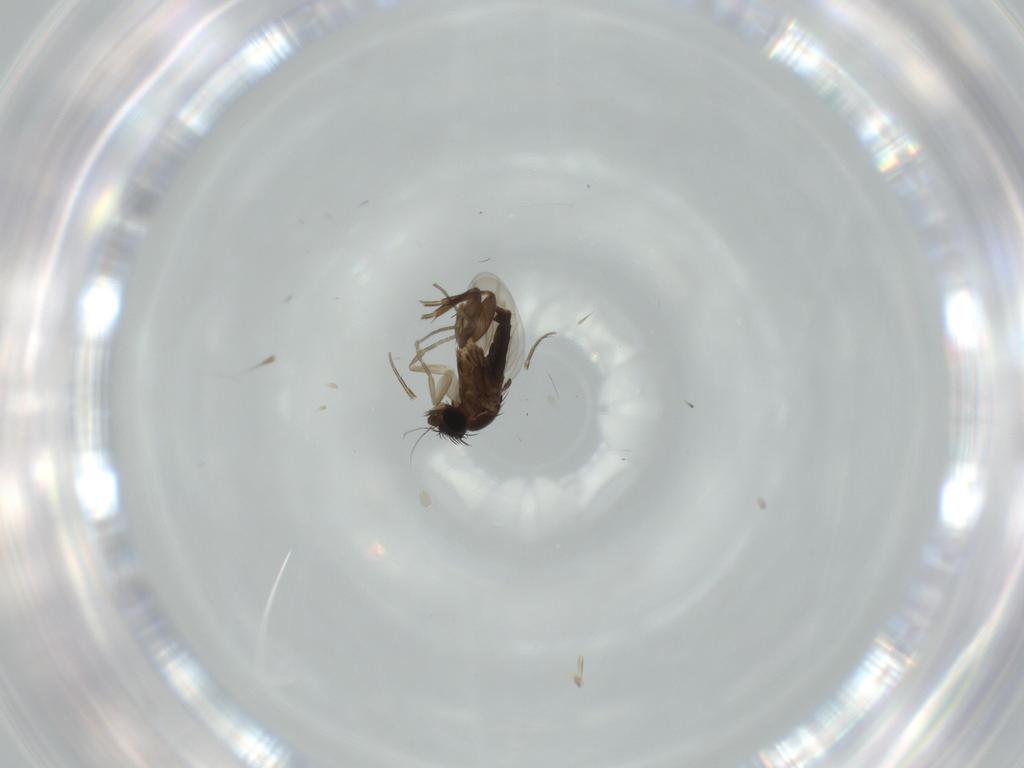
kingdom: Animalia
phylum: Arthropoda
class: Insecta
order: Diptera
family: Phoridae
